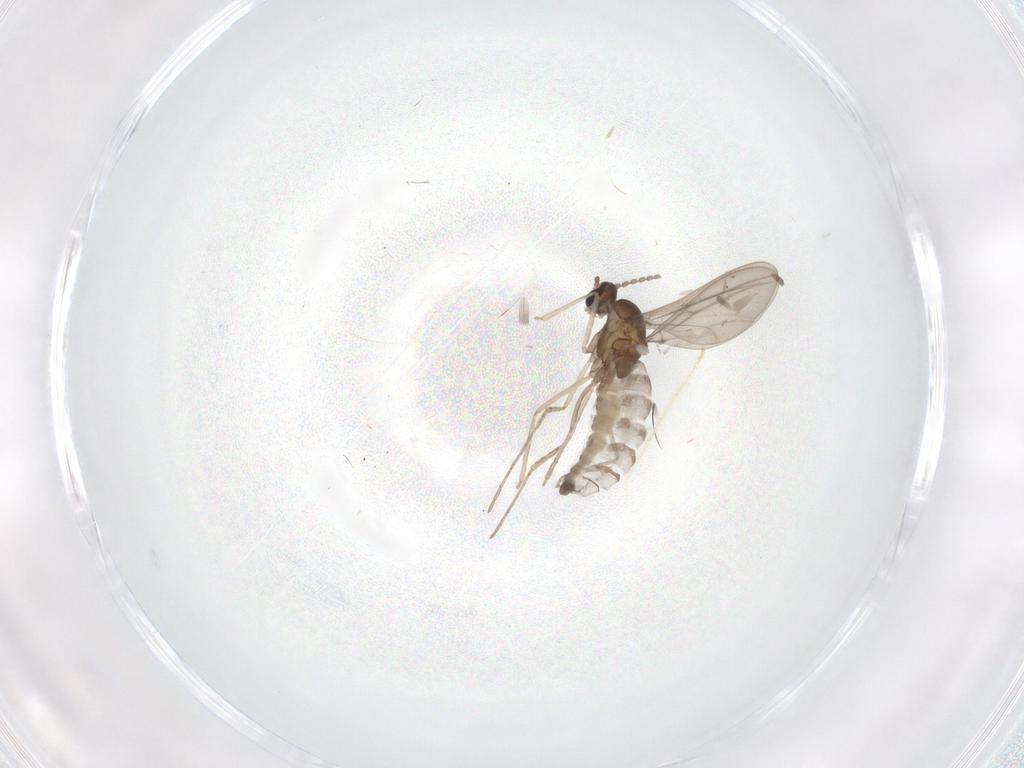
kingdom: Animalia
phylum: Arthropoda
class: Insecta
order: Diptera
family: Chironomidae
